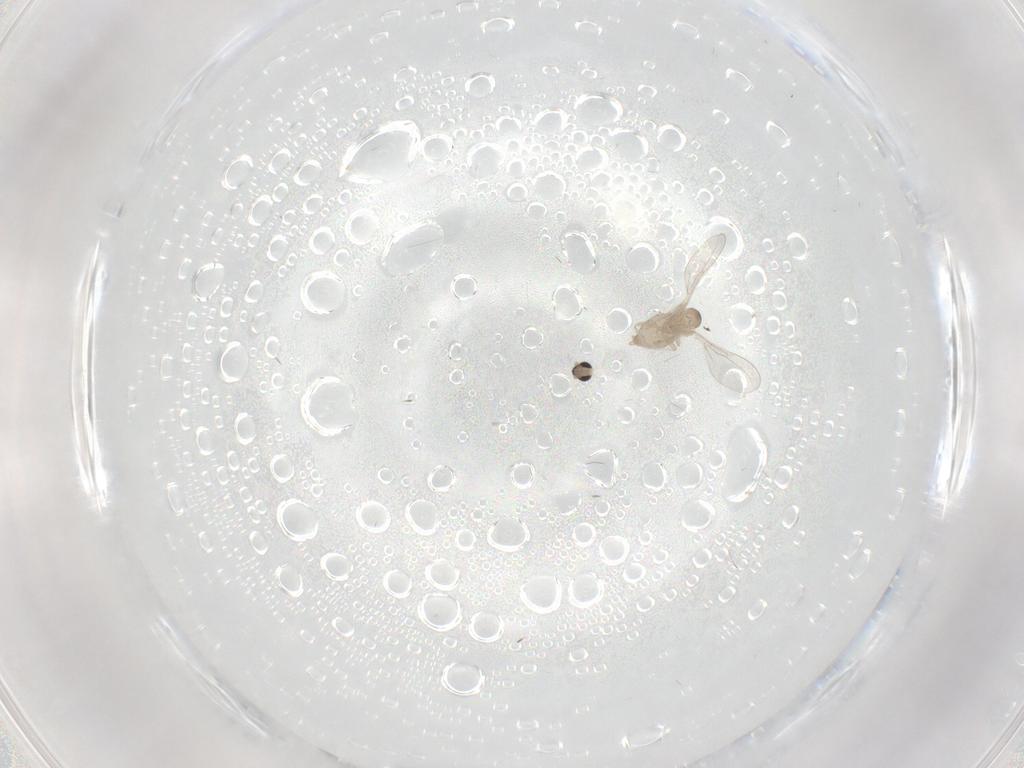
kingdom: Animalia
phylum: Arthropoda
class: Insecta
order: Diptera
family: Cecidomyiidae
